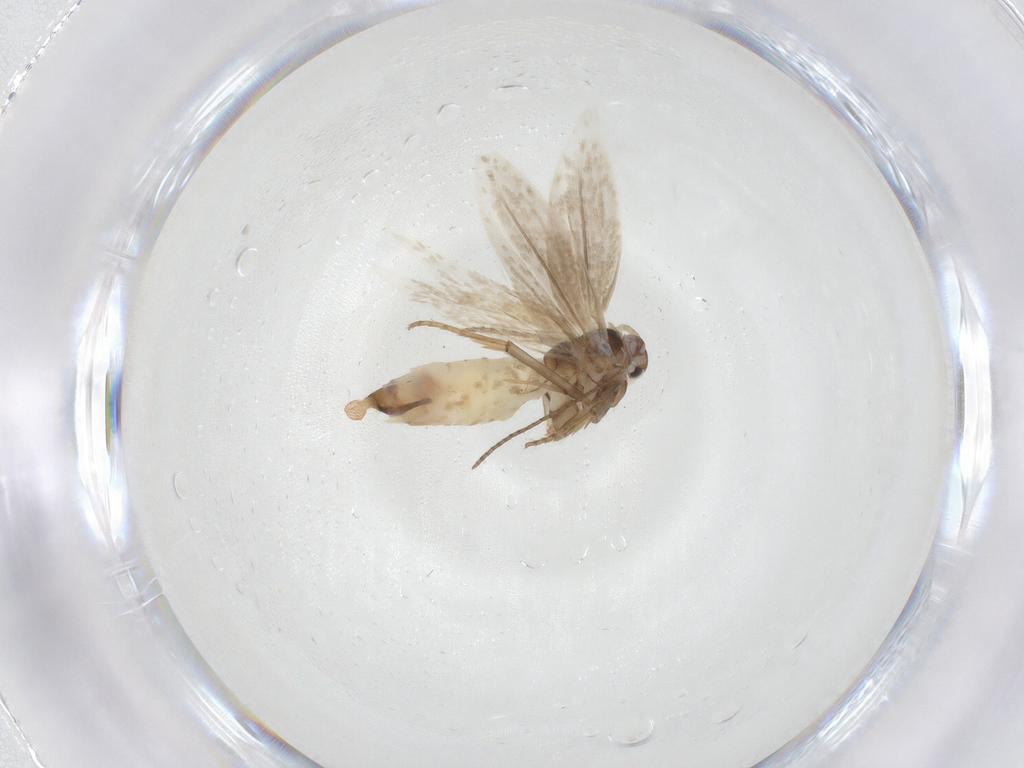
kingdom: Animalia
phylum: Arthropoda
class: Insecta
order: Lepidoptera
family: Bucculatricidae
